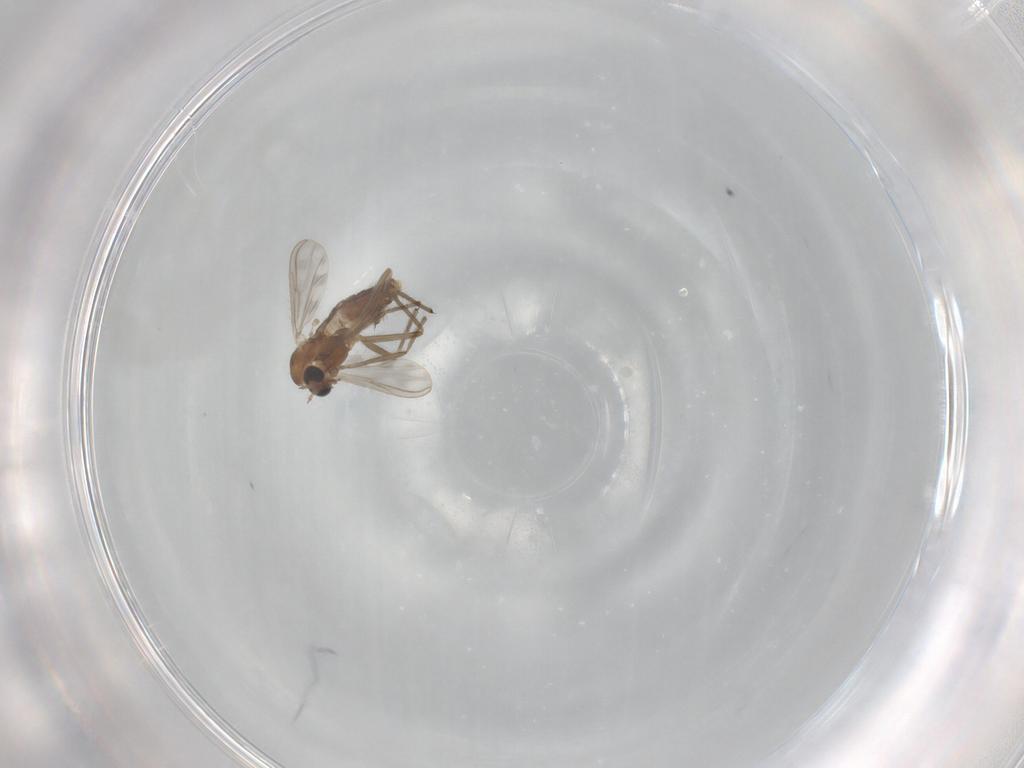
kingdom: Animalia
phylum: Arthropoda
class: Insecta
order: Diptera
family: Chironomidae
